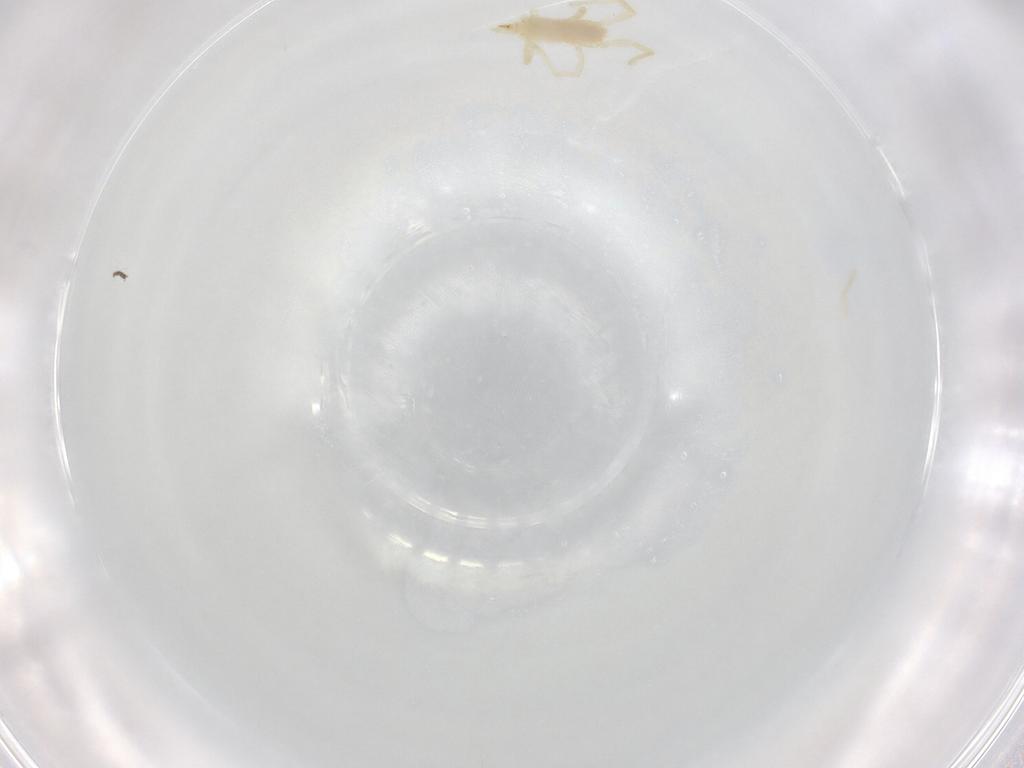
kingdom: Animalia
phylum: Arthropoda
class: Arachnida
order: Trombidiformes
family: Erythraeidae
